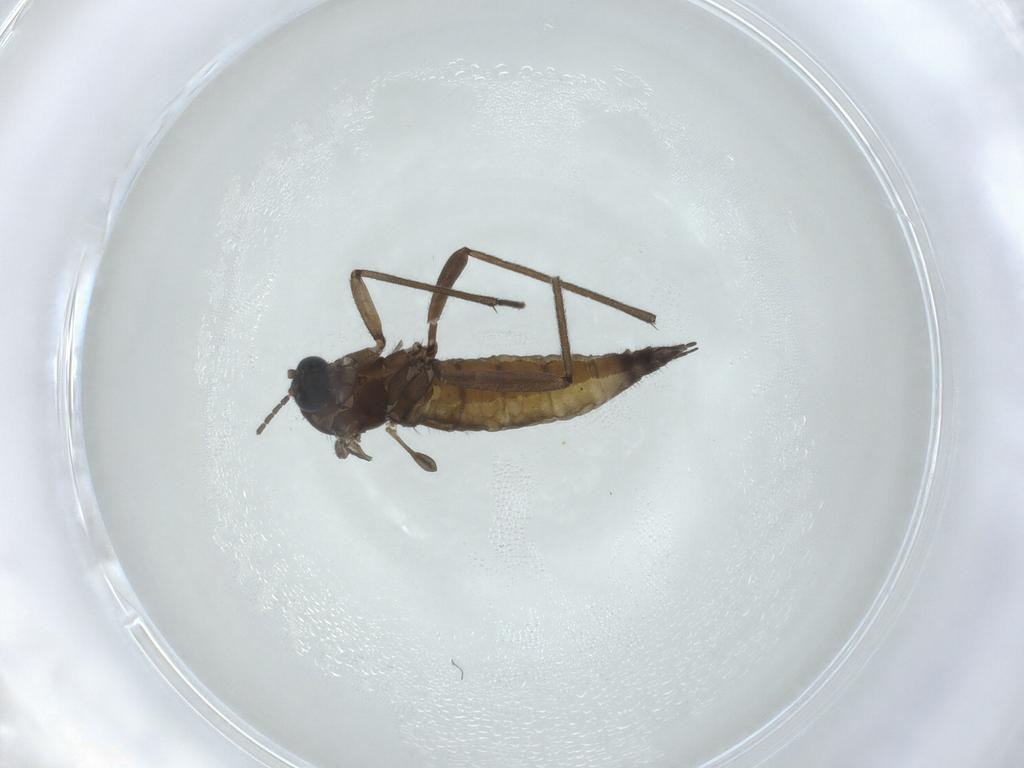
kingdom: Animalia
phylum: Arthropoda
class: Insecta
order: Diptera
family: Sciaridae
